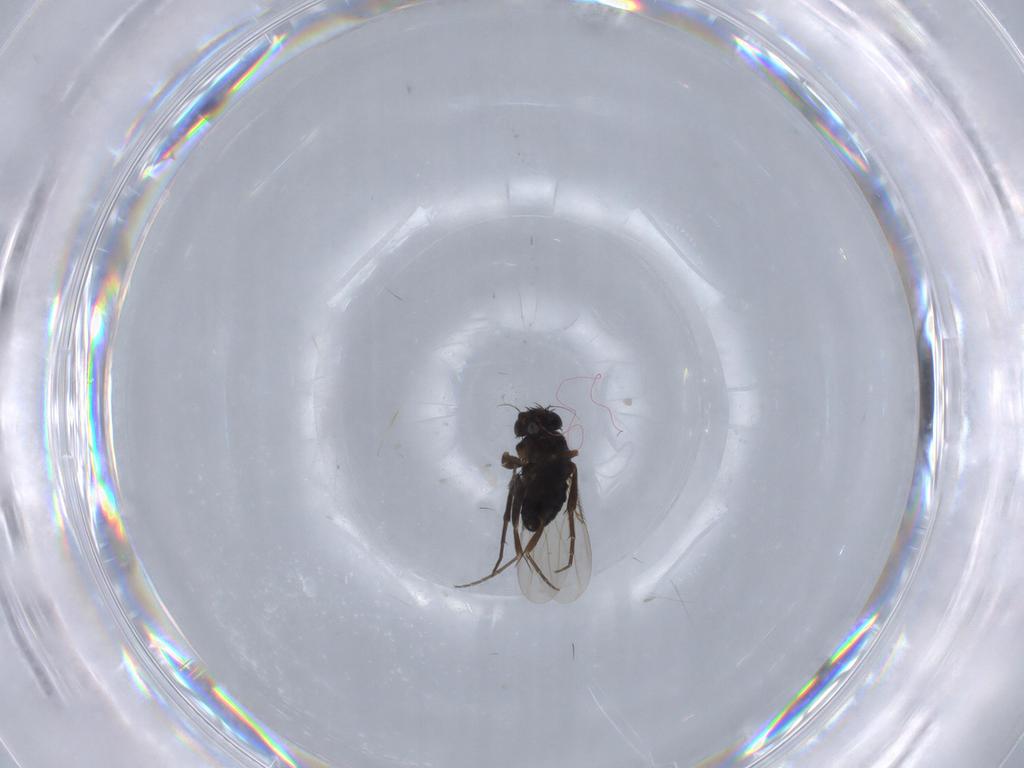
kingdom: Animalia
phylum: Arthropoda
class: Insecta
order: Diptera
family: Phoridae
